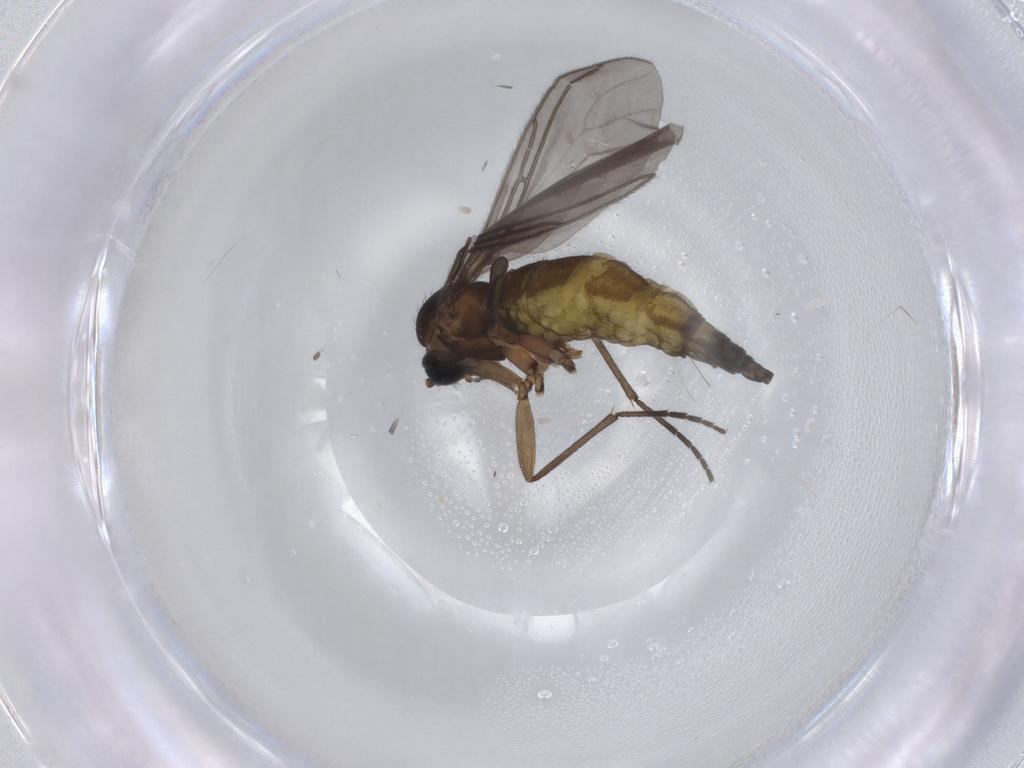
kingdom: Animalia
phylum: Arthropoda
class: Insecta
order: Diptera
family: Sciaridae
